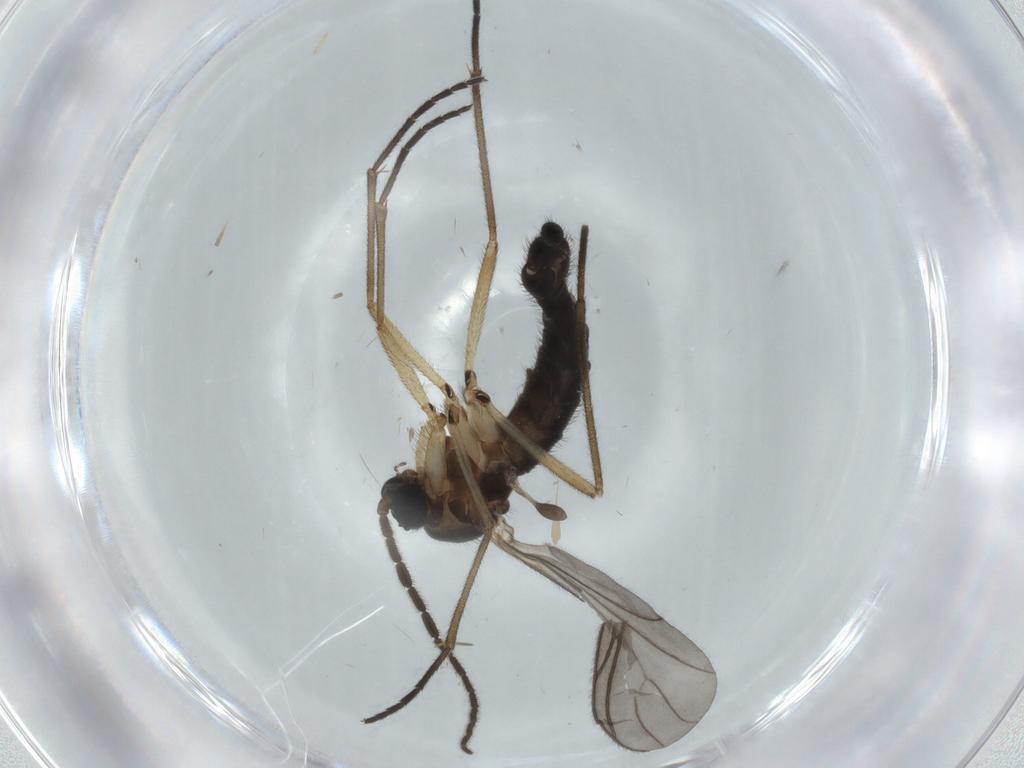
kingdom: Animalia
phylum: Arthropoda
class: Insecta
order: Diptera
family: Sciaridae
